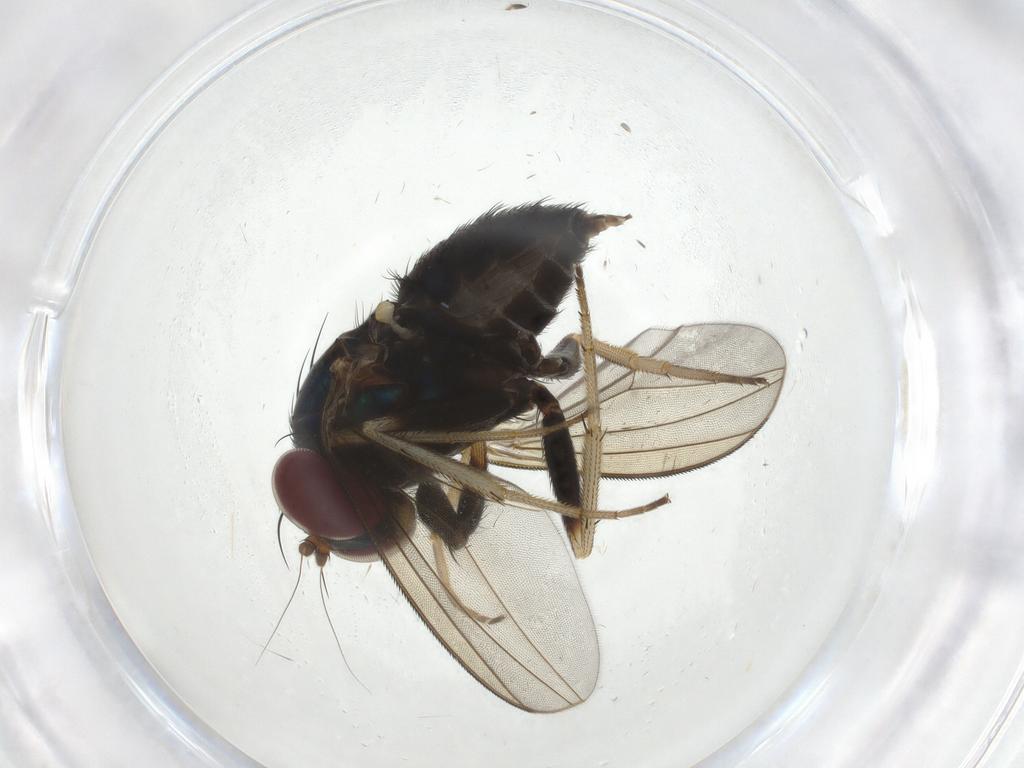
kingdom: Animalia
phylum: Arthropoda
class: Insecta
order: Diptera
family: Dolichopodidae
